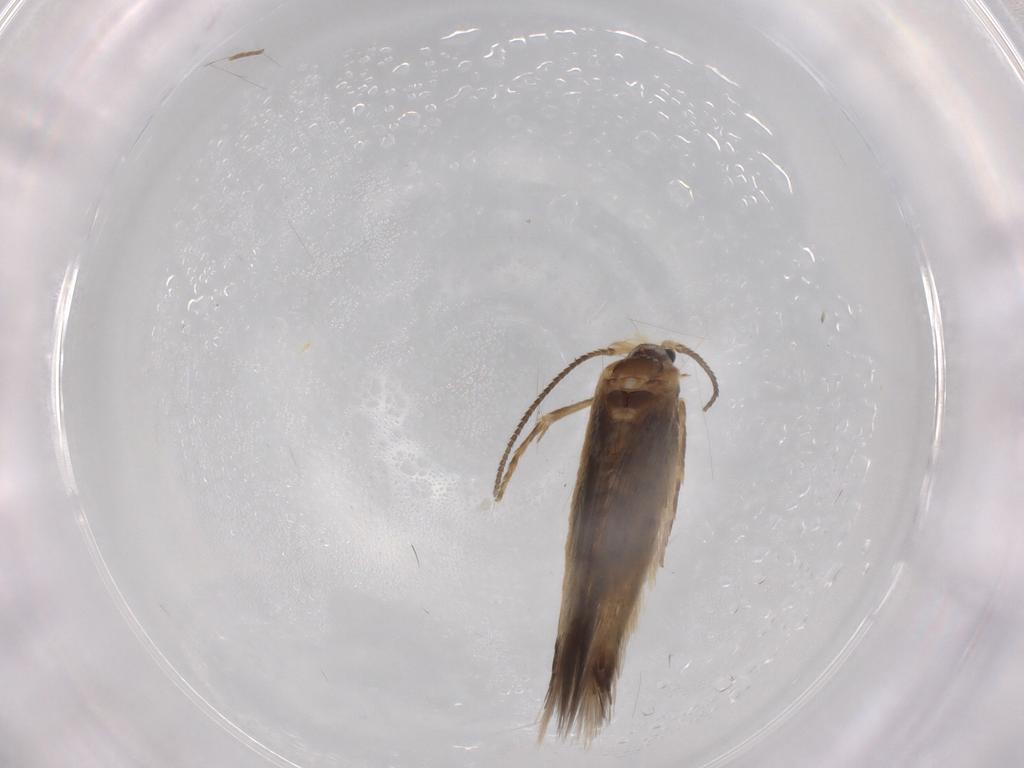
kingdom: Animalia
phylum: Arthropoda
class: Insecta
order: Lepidoptera
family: Nepticulidae
